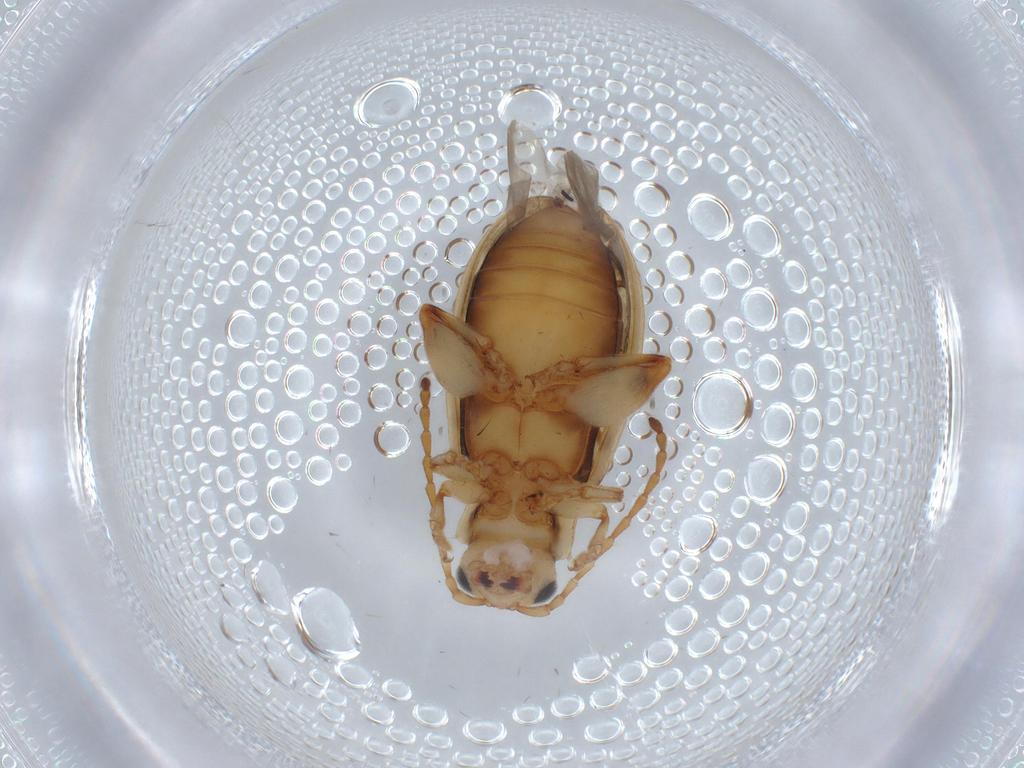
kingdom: Animalia
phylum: Arthropoda
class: Insecta
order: Coleoptera
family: Chrysomelidae
